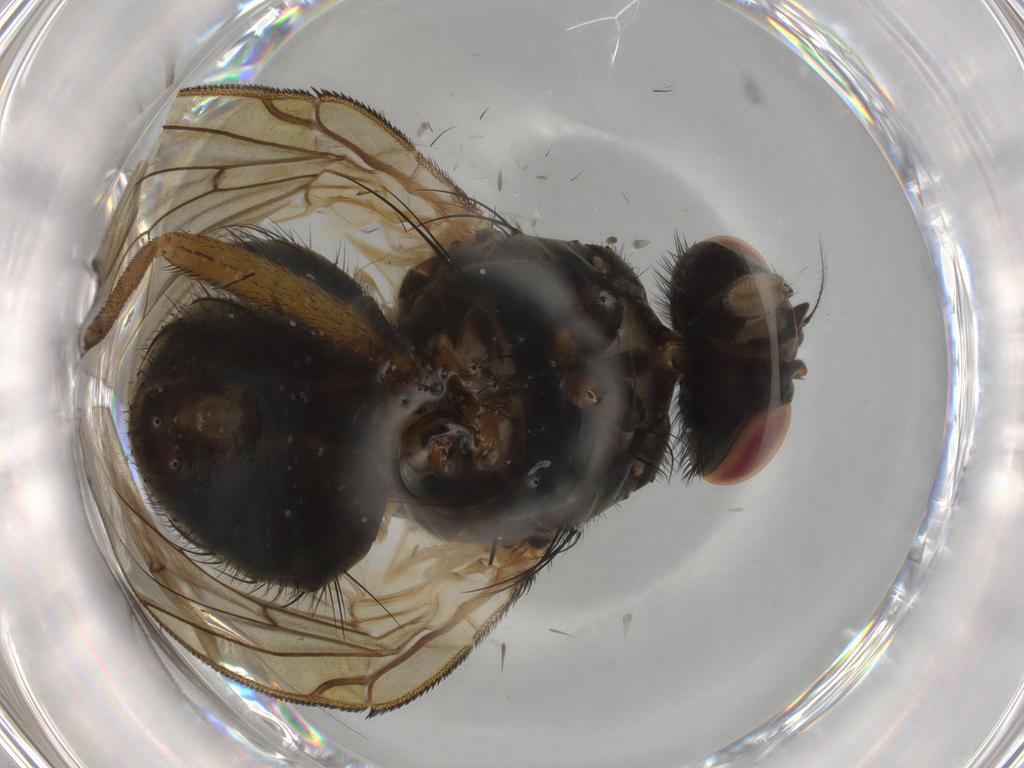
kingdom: Animalia
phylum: Arthropoda
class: Insecta
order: Diptera
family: Muscidae
